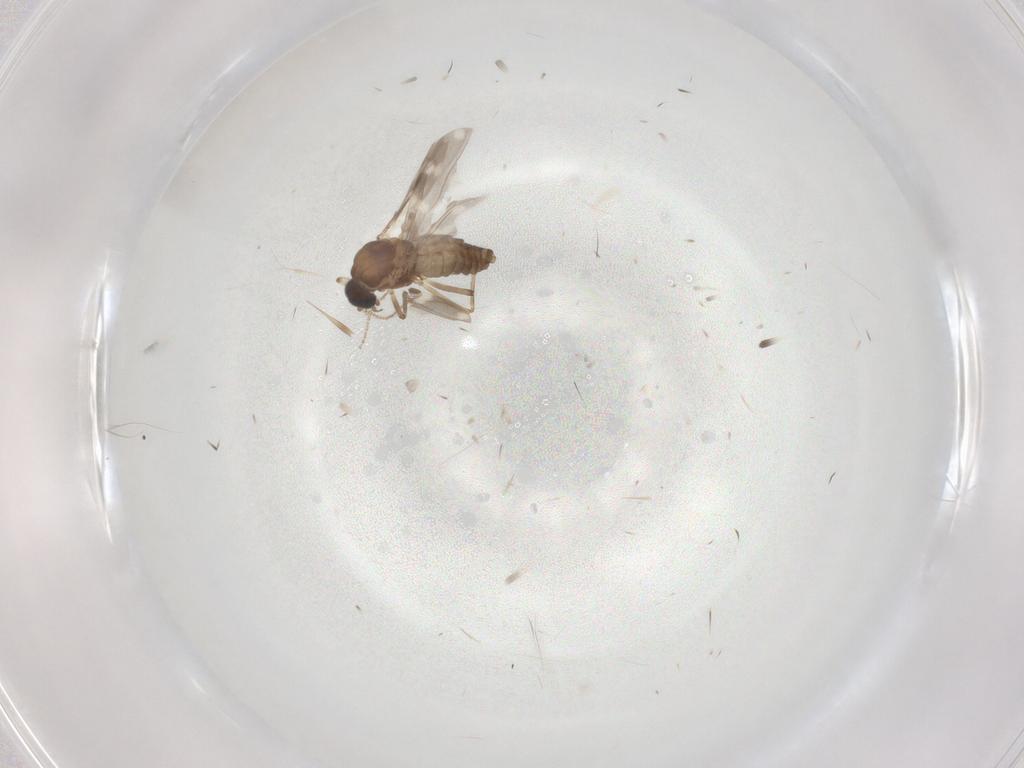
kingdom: Animalia
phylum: Arthropoda
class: Insecta
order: Diptera
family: Ceratopogonidae
